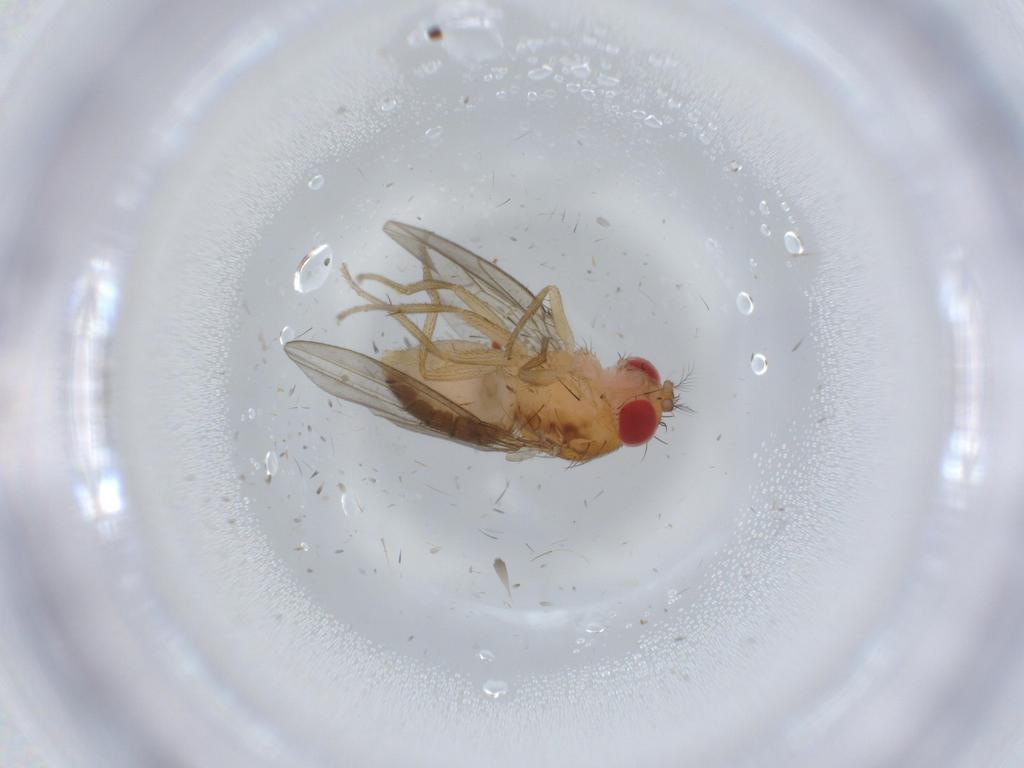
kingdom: Animalia
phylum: Arthropoda
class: Insecta
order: Diptera
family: Drosophilidae
